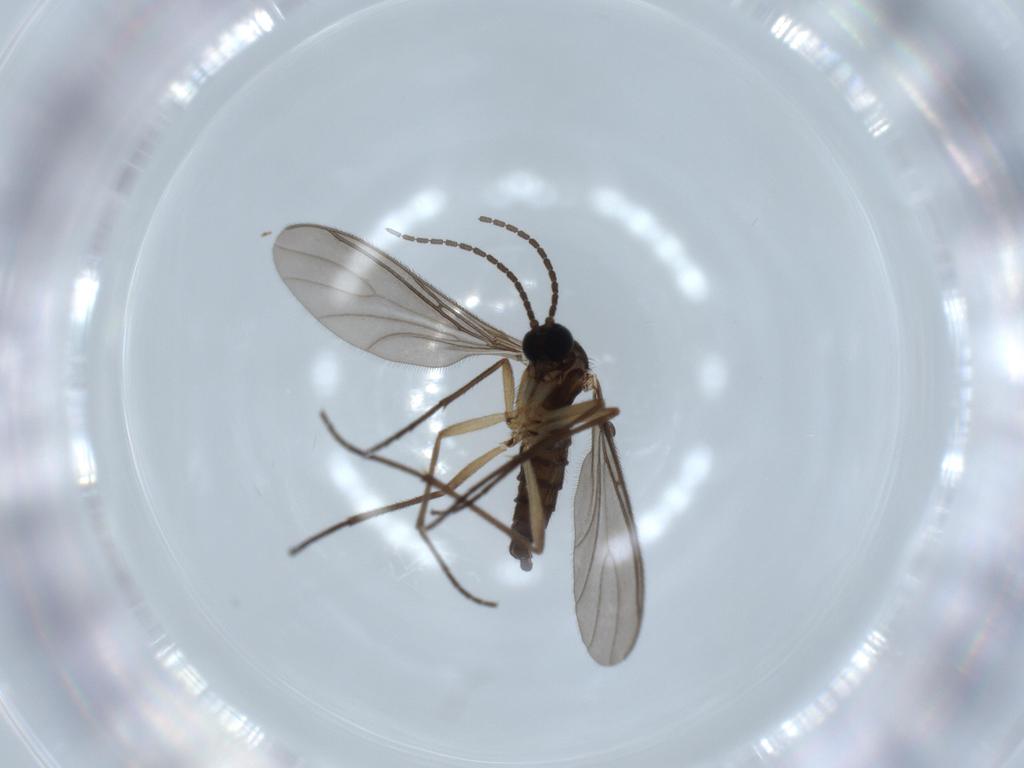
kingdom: Animalia
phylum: Arthropoda
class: Insecta
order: Diptera
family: Sciaridae
